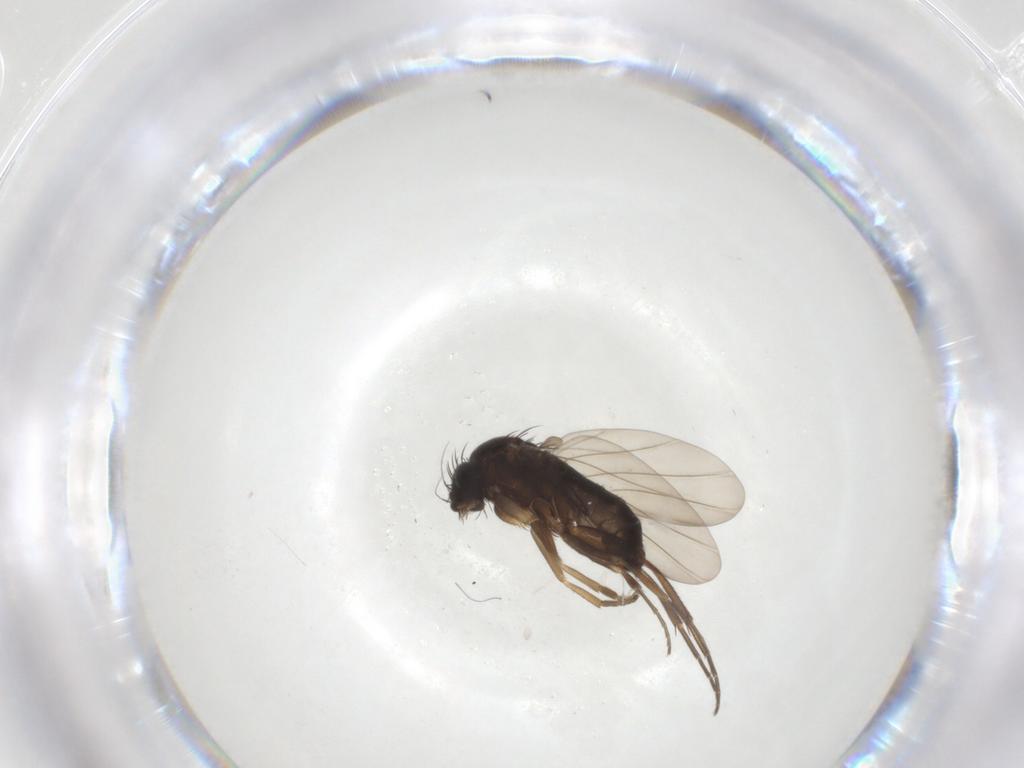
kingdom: Animalia
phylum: Arthropoda
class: Insecta
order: Diptera
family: Phoridae
